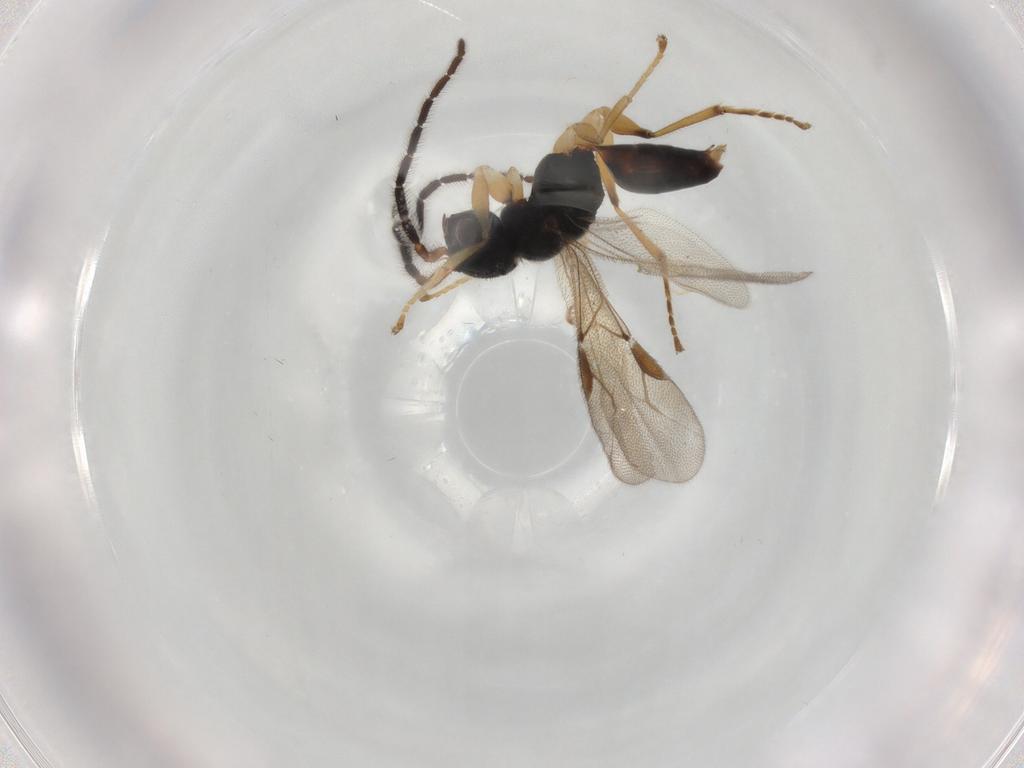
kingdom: Animalia
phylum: Arthropoda
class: Insecta
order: Hymenoptera
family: Dryinidae
